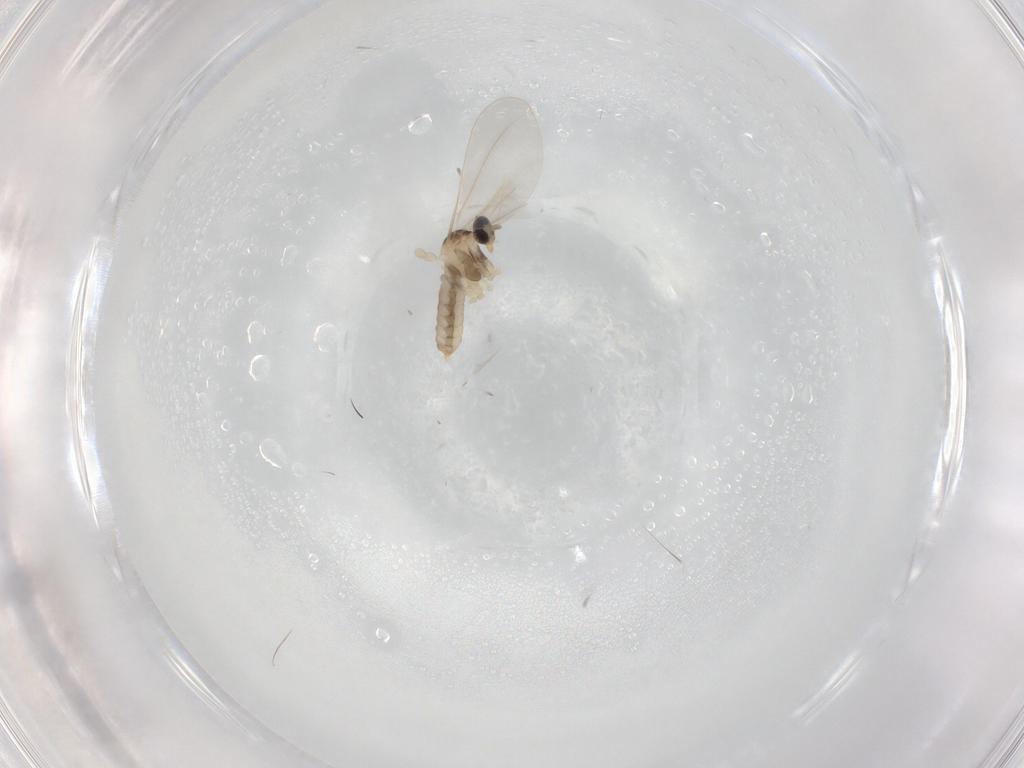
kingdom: Animalia
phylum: Arthropoda
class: Insecta
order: Diptera
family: Cecidomyiidae
